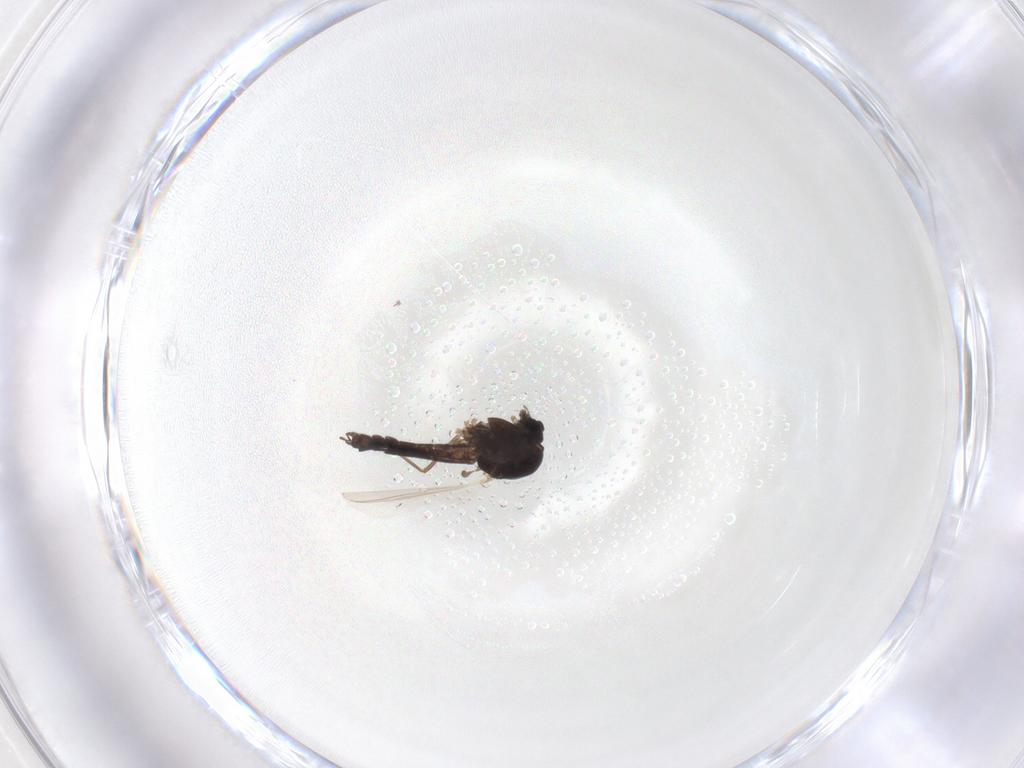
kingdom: Animalia
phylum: Arthropoda
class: Insecta
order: Diptera
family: Chironomidae
